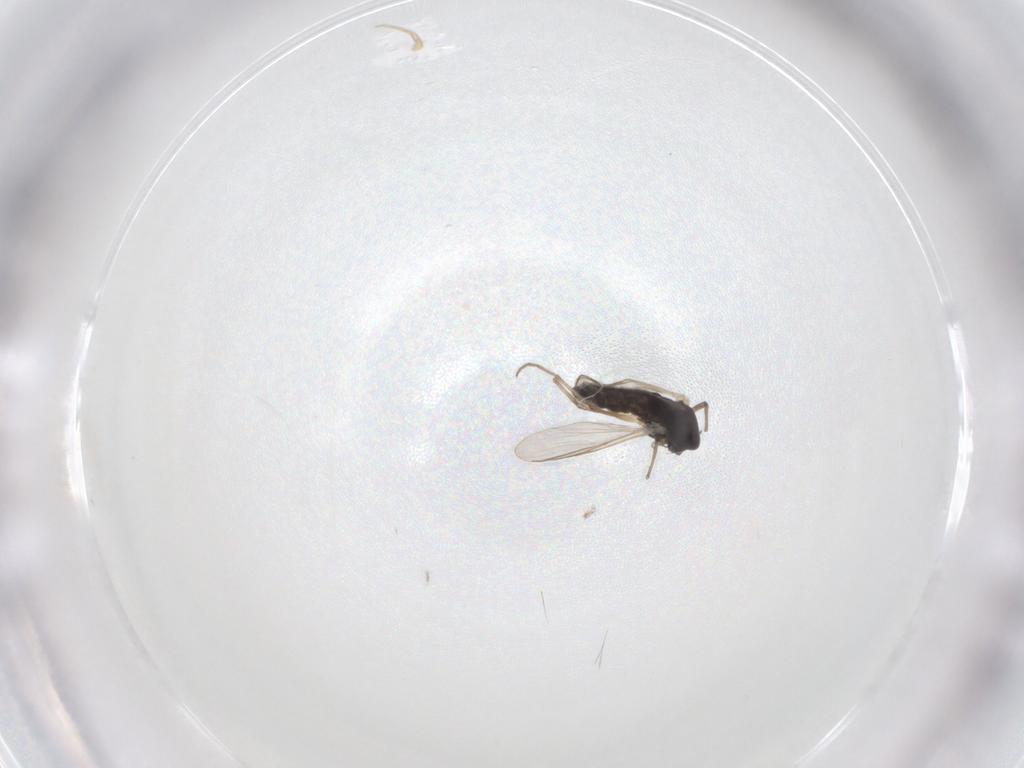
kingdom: Animalia
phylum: Arthropoda
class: Insecta
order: Diptera
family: Chironomidae
